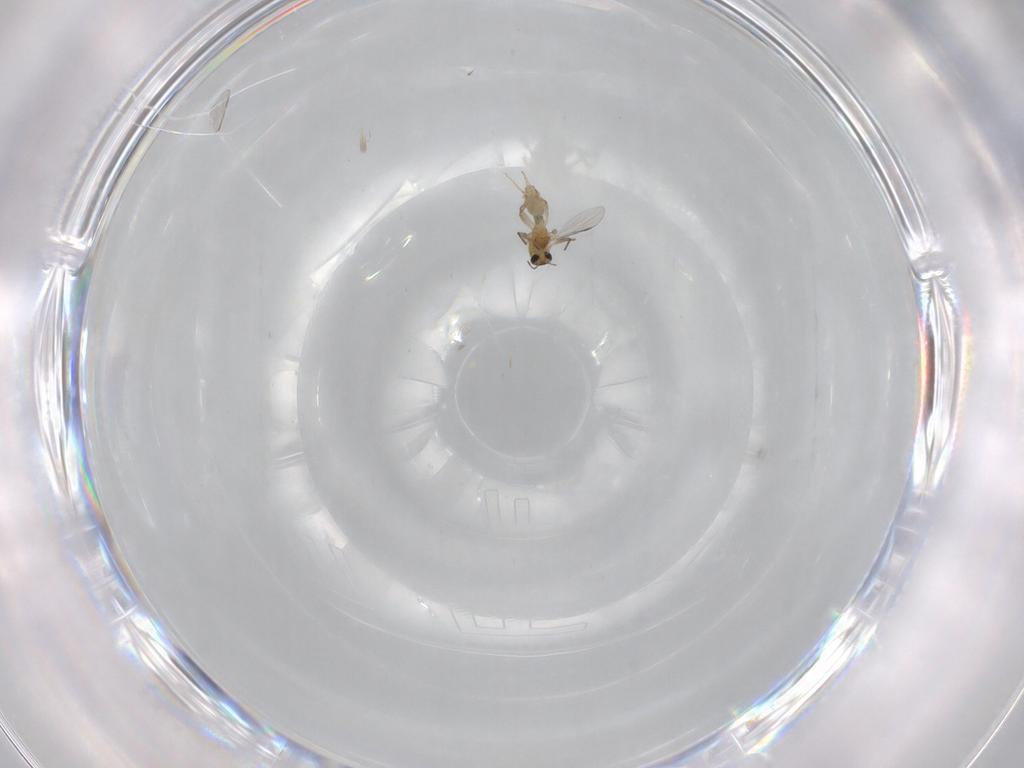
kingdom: Animalia
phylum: Arthropoda
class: Insecta
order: Diptera
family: Chironomidae
